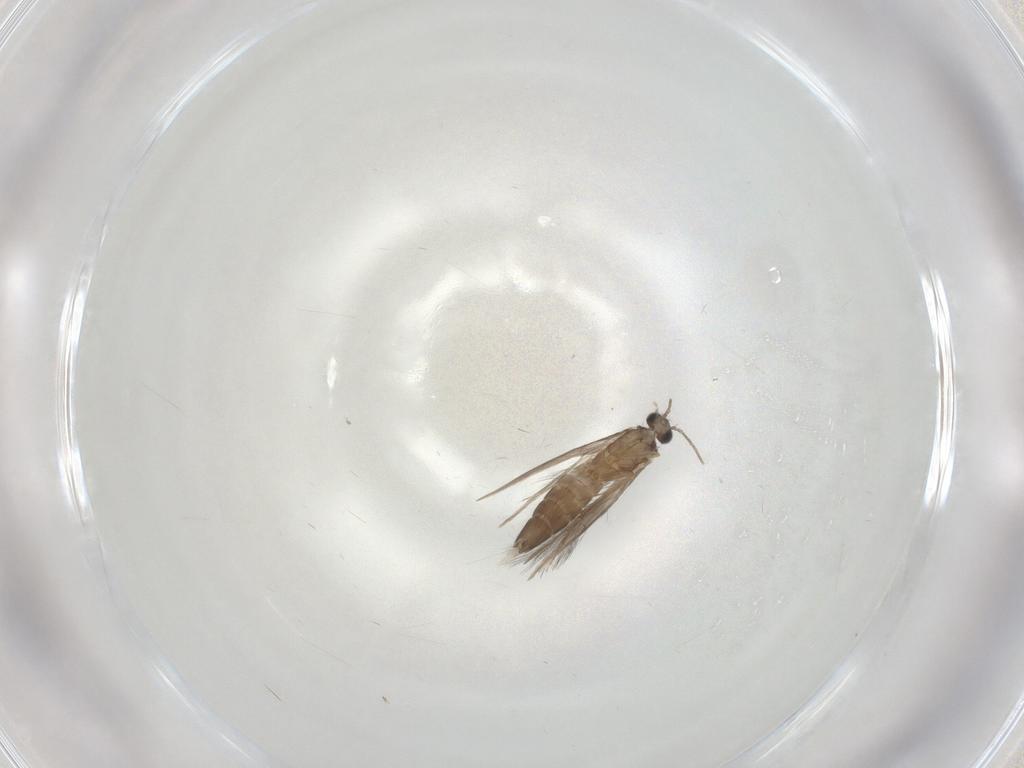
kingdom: Animalia
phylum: Arthropoda
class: Insecta
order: Trichoptera
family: Hydroptilidae
